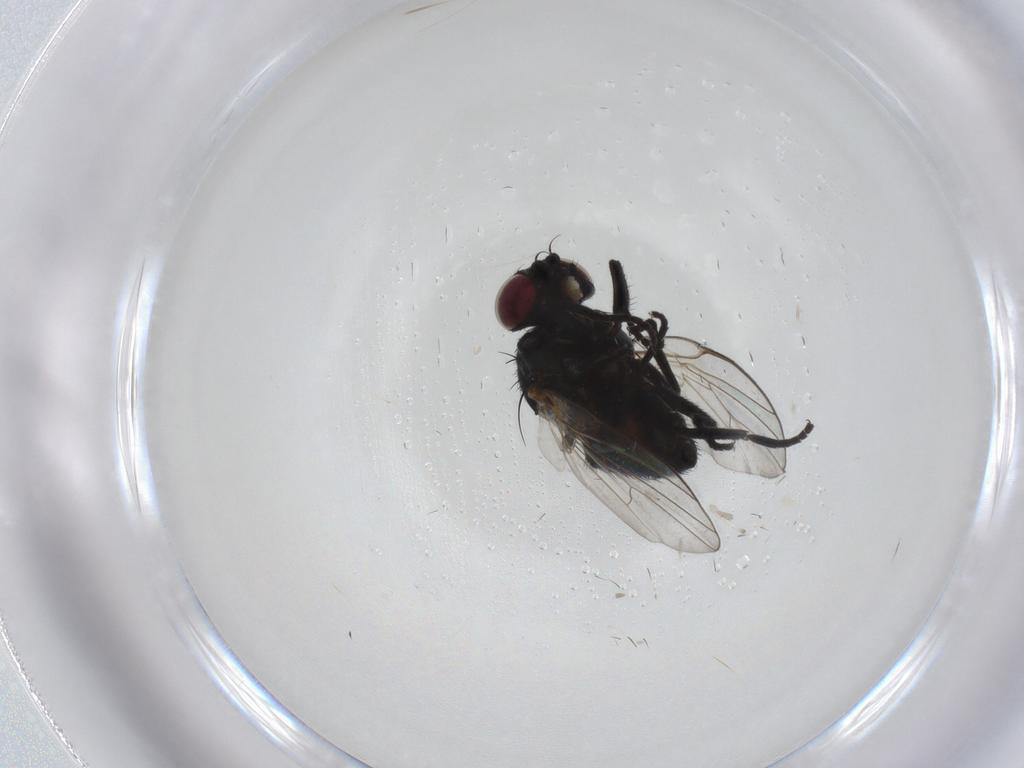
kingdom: Animalia
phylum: Arthropoda
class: Insecta
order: Diptera
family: Agromyzidae
